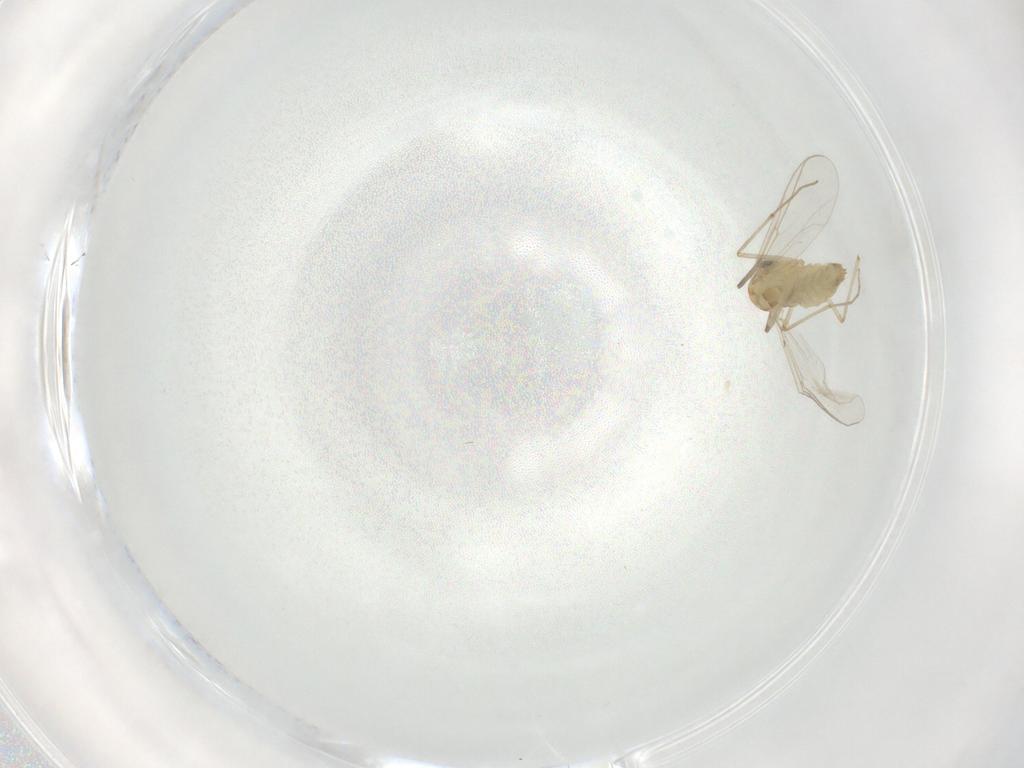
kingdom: Animalia
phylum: Arthropoda
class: Insecta
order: Diptera
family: Chironomidae
